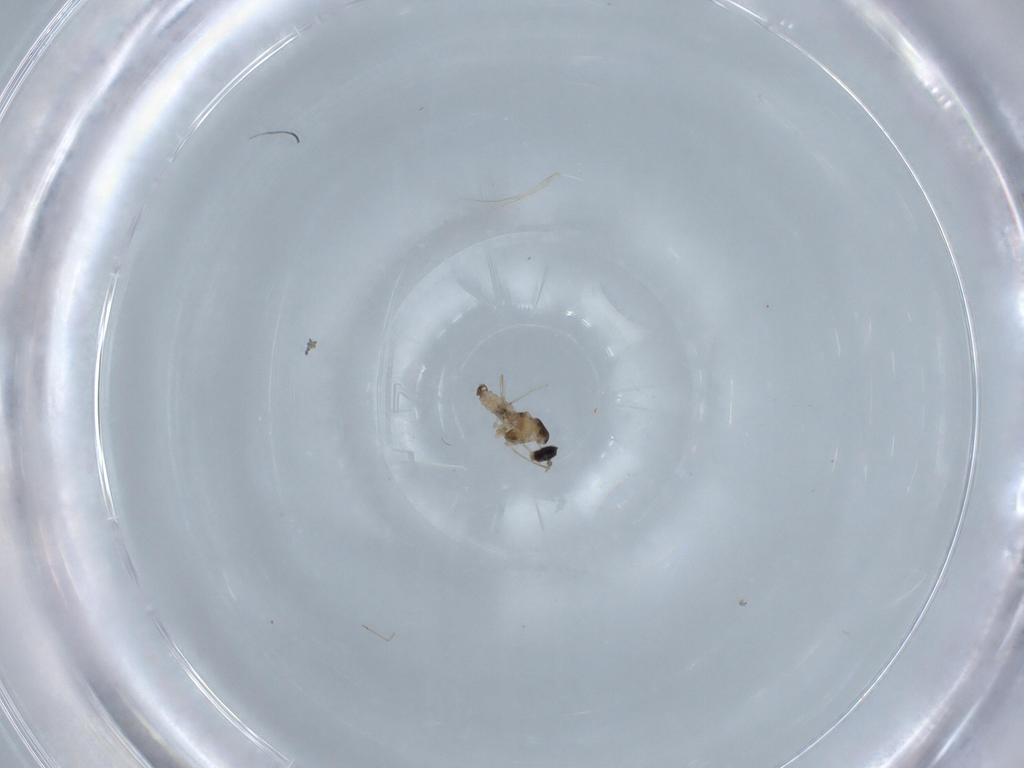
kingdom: Animalia
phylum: Arthropoda
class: Insecta
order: Diptera
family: Cecidomyiidae
